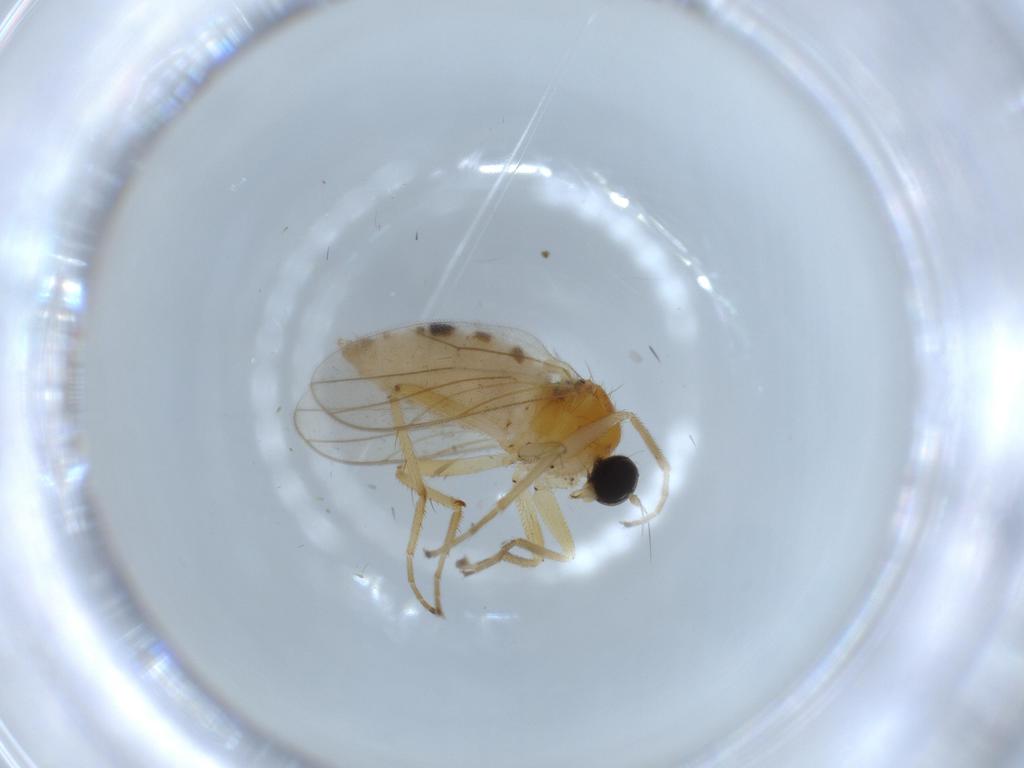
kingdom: Animalia
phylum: Arthropoda
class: Insecta
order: Diptera
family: Hybotidae
